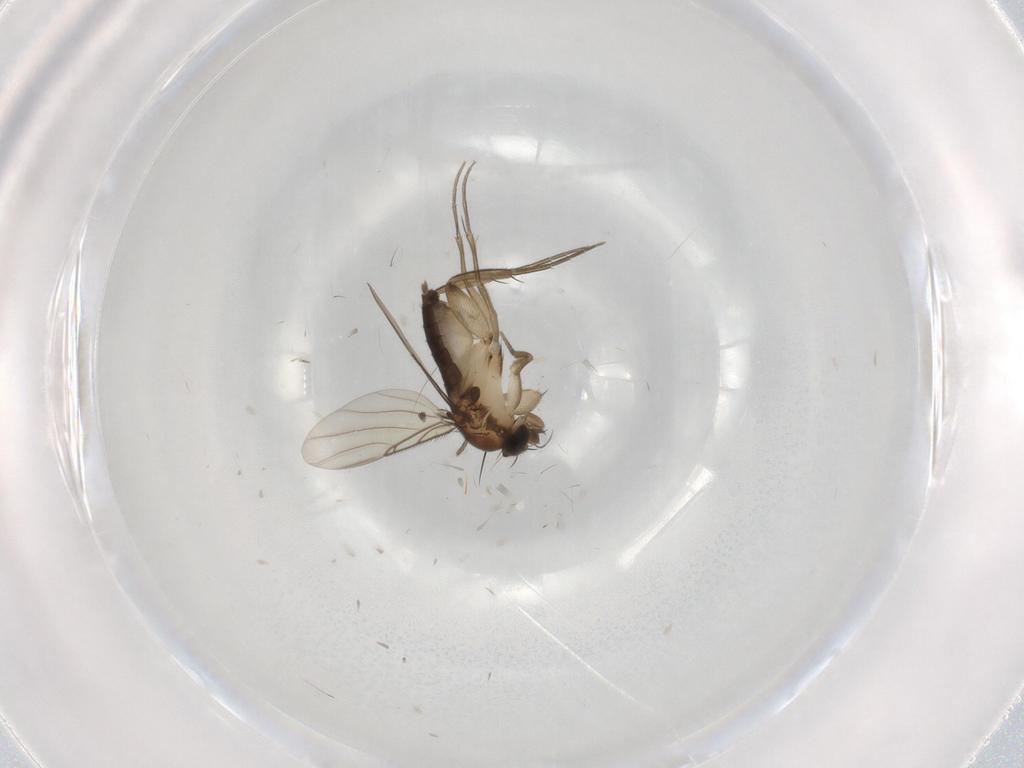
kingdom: Animalia
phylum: Arthropoda
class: Insecta
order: Diptera
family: Phoridae
